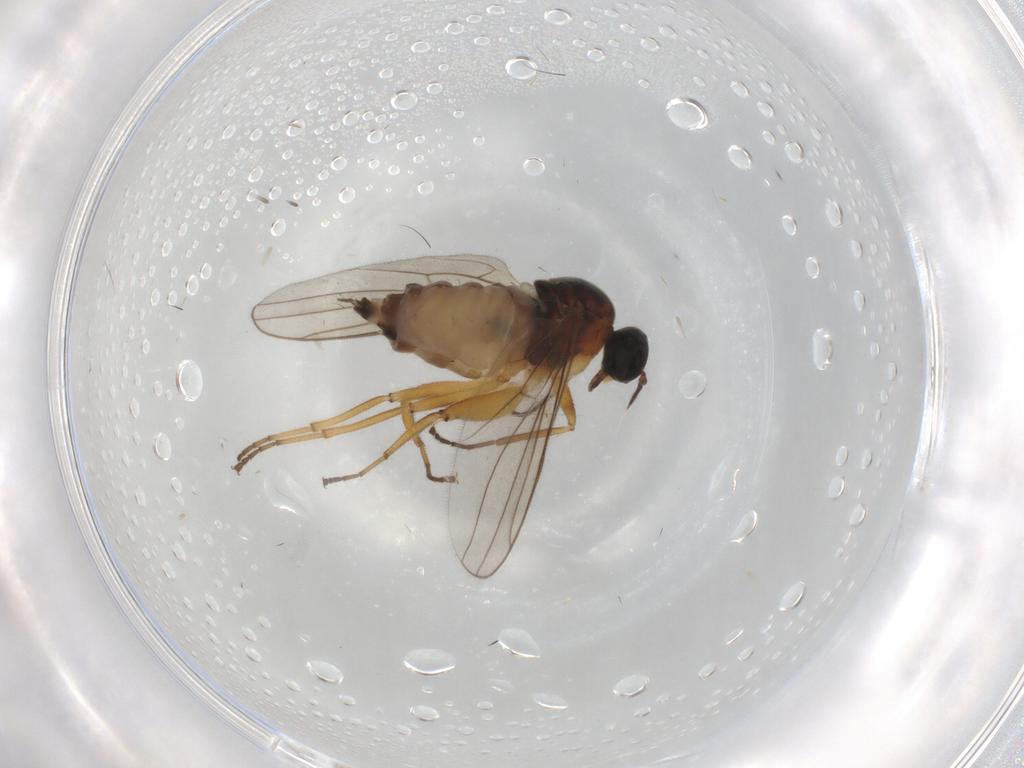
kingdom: Animalia
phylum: Arthropoda
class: Insecta
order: Diptera
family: Hybotidae
